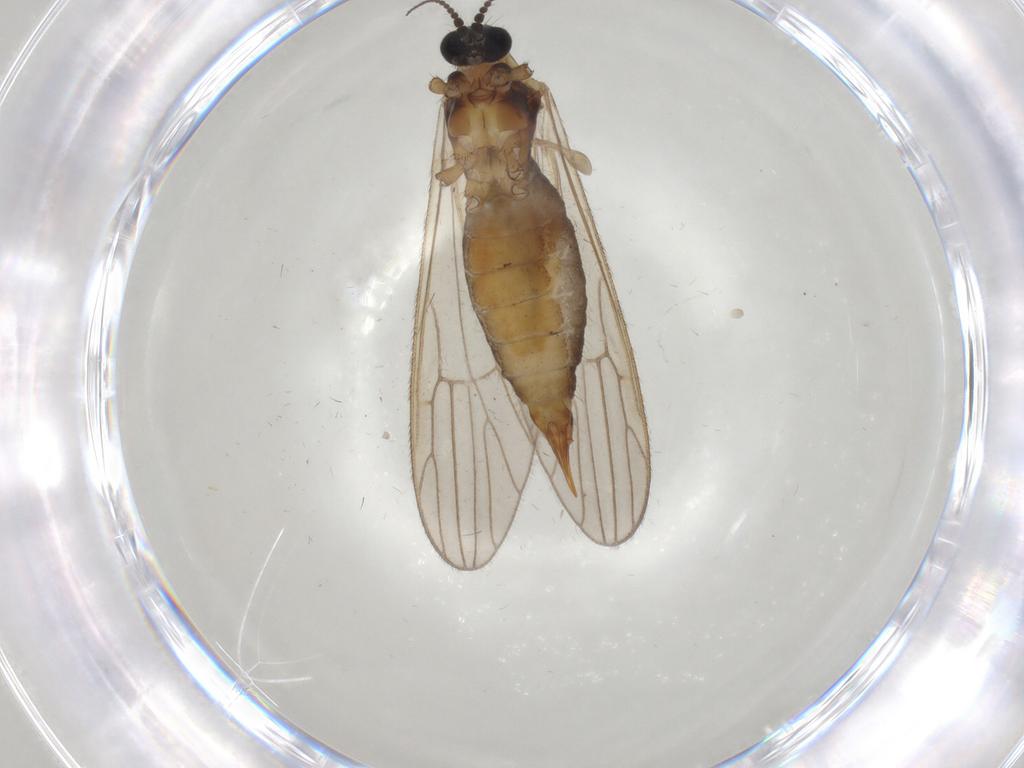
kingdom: Animalia
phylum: Arthropoda
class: Insecta
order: Diptera
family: Agromyzidae
